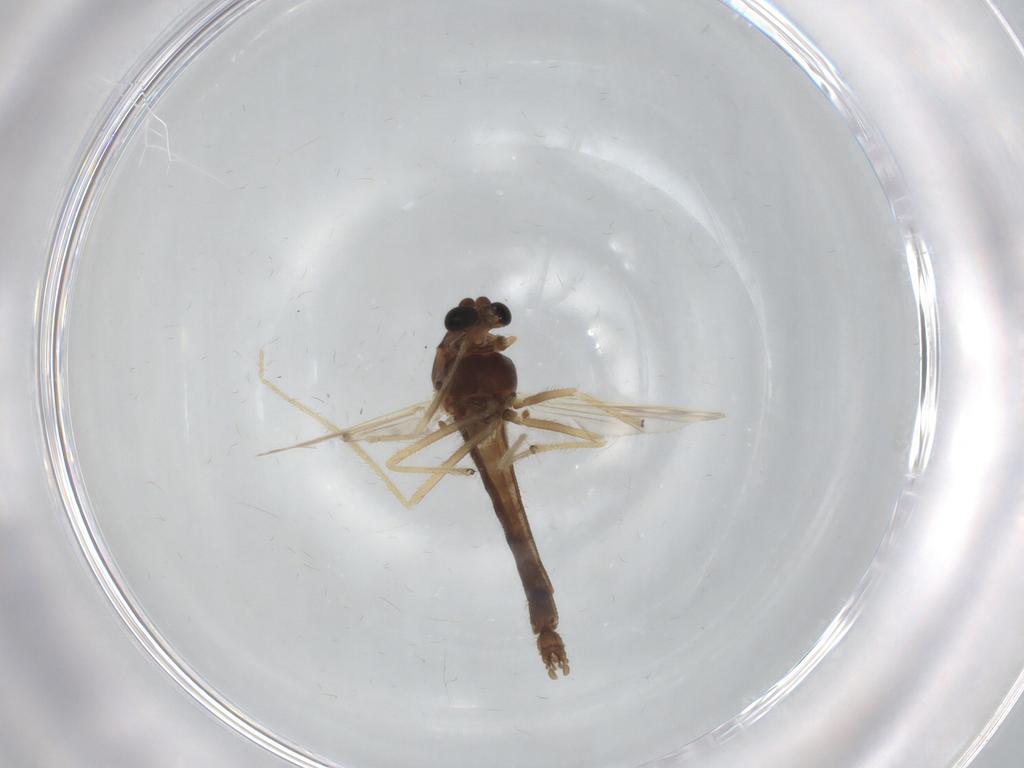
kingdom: Animalia
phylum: Arthropoda
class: Insecta
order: Diptera
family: Chironomidae
